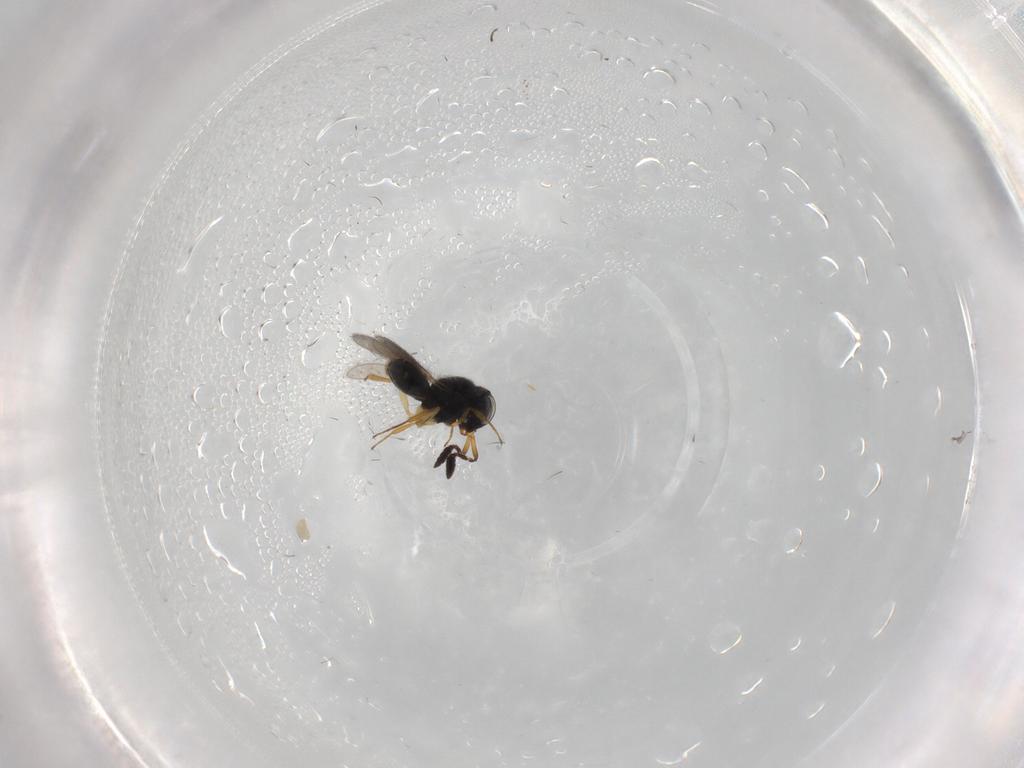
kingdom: Animalia
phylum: Arthropoda
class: Insecta
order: Hymenoptera
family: Scelionidae
